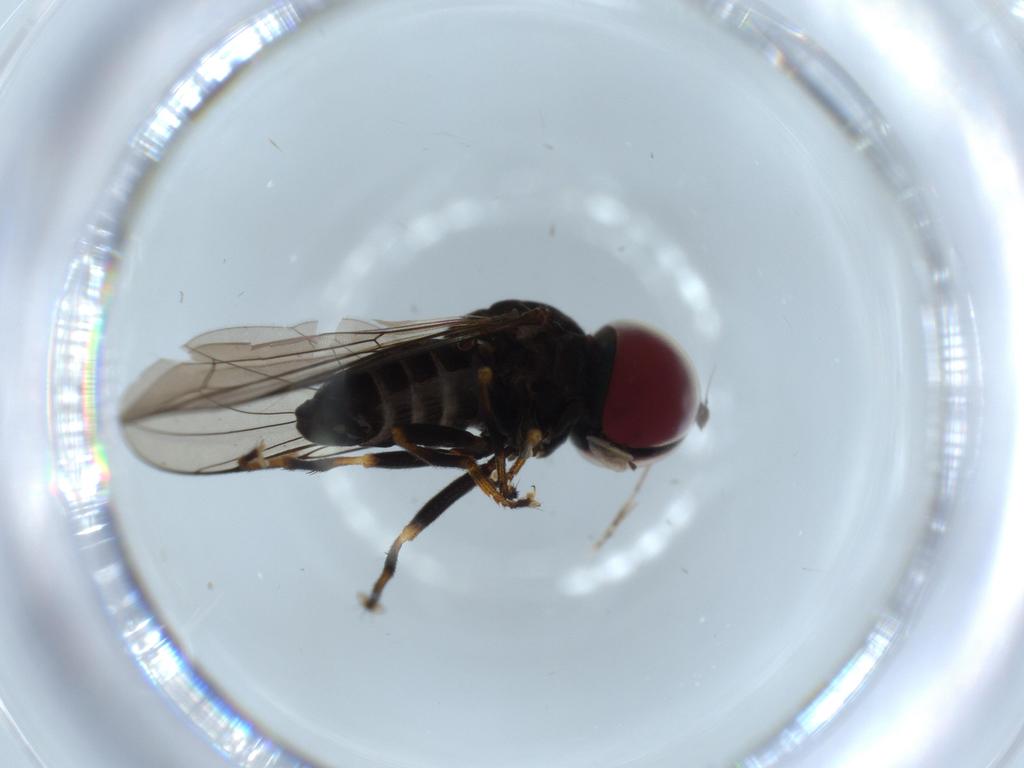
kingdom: Animalia
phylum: Arthropoda
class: Insecta
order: Diptera
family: Pipunculidae
